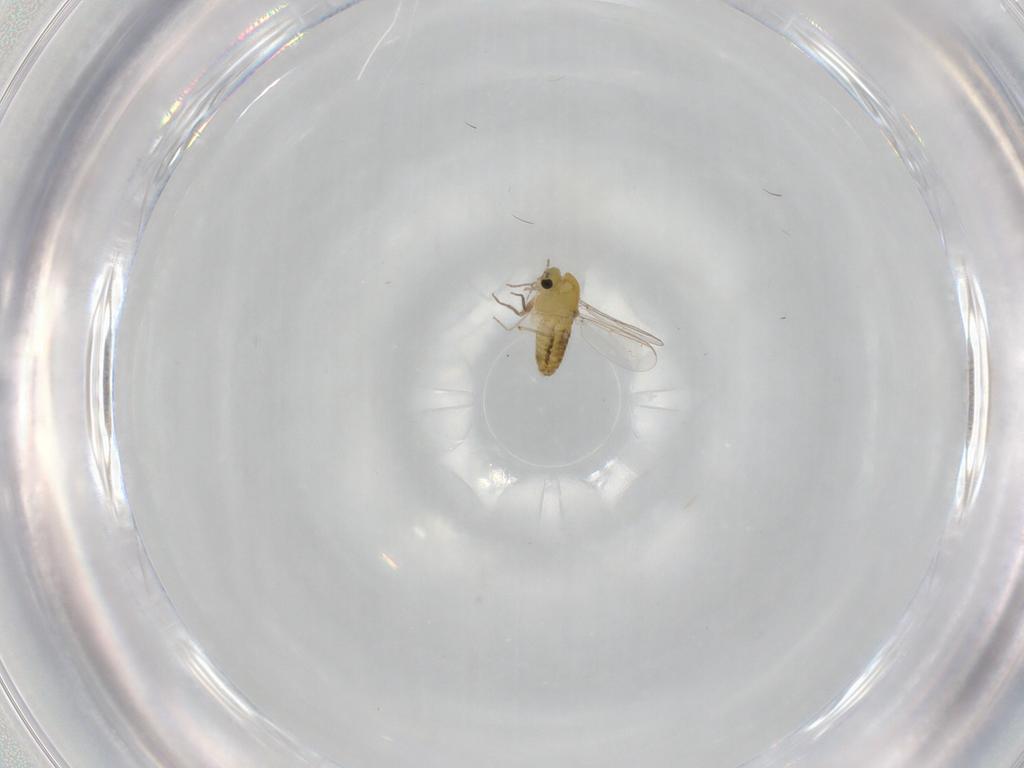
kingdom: Animalia
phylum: Arthropoda
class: Insecta
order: Diptera
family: Chironomidae
